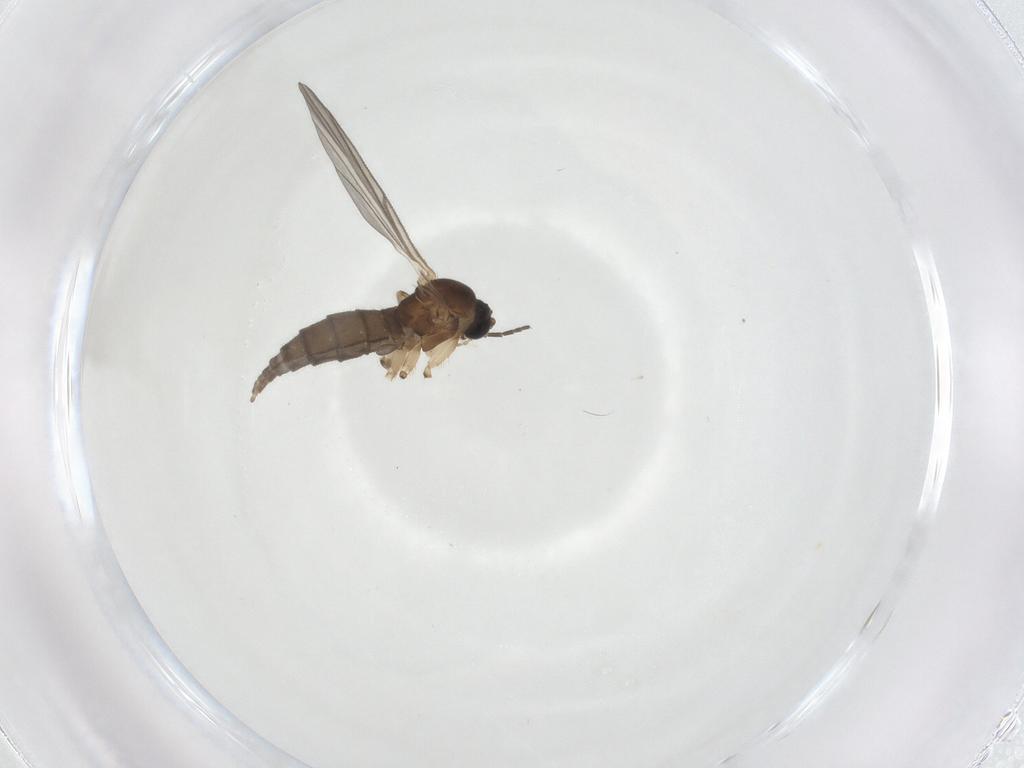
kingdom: Animalia
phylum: Arthropoda
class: Insecta
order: Diptera
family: Sciaridae
